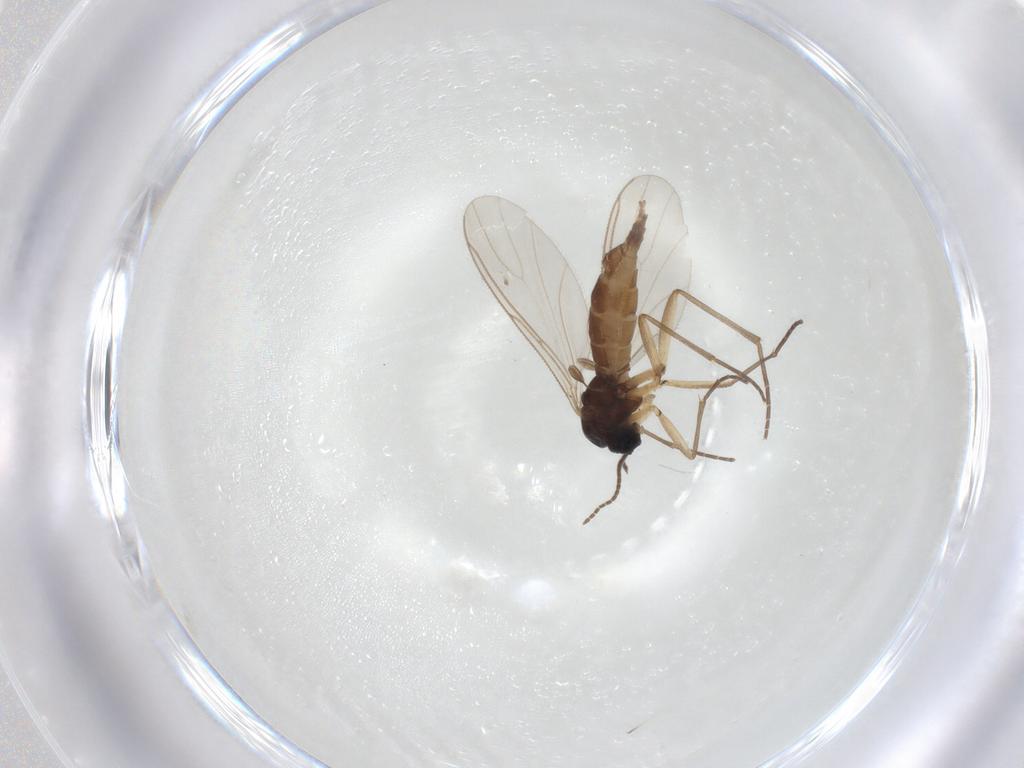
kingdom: Animalia
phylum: Arthropoda
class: Insecta
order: Diptera
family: Sciaridae
